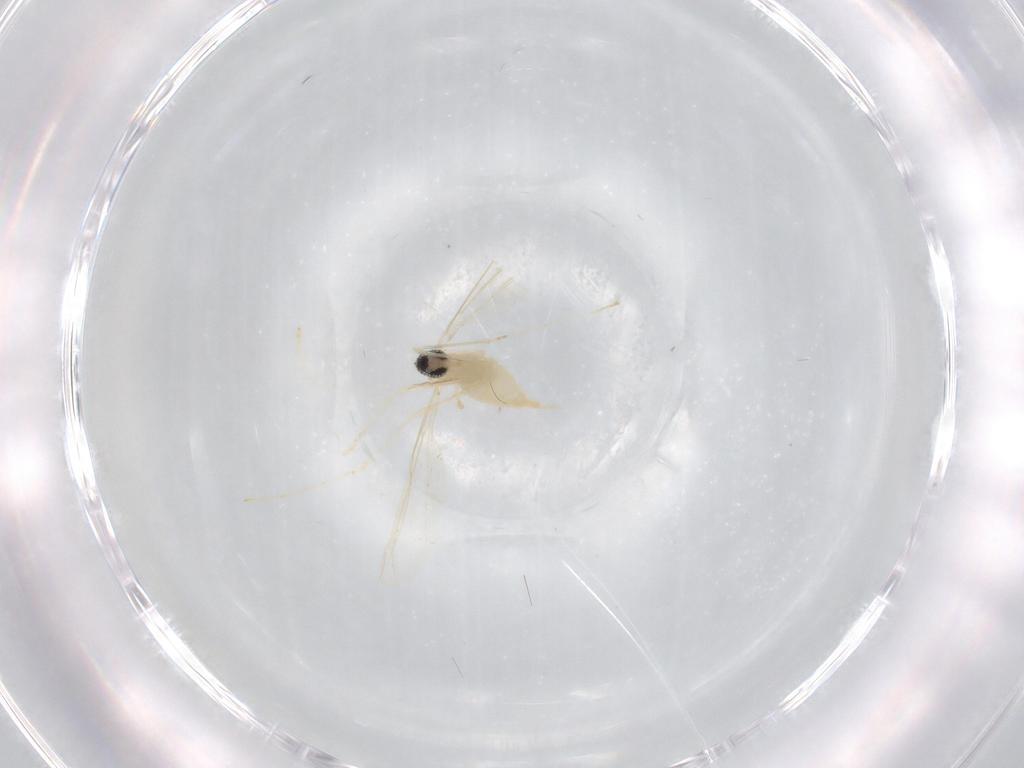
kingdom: Animalia
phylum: Arthropoda
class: Insecta
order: Diptera
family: Cecidomyiidae
